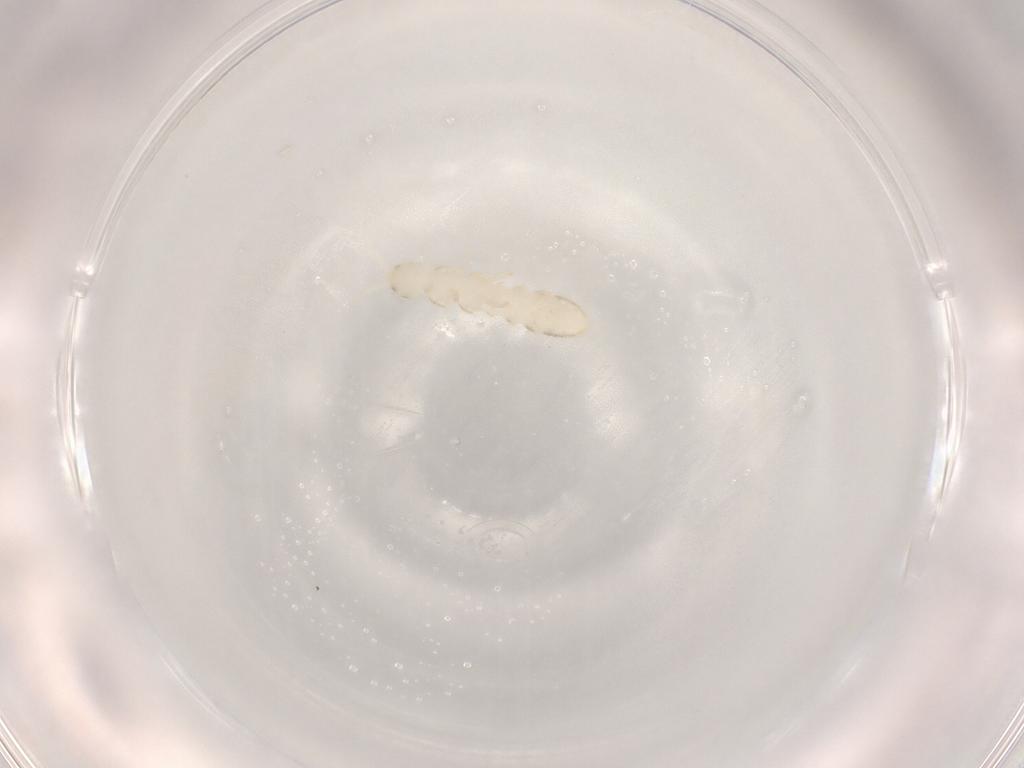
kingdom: Animalia
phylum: Arthropoda
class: Collembola
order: Entomobryomorpha
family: Isotomidae
